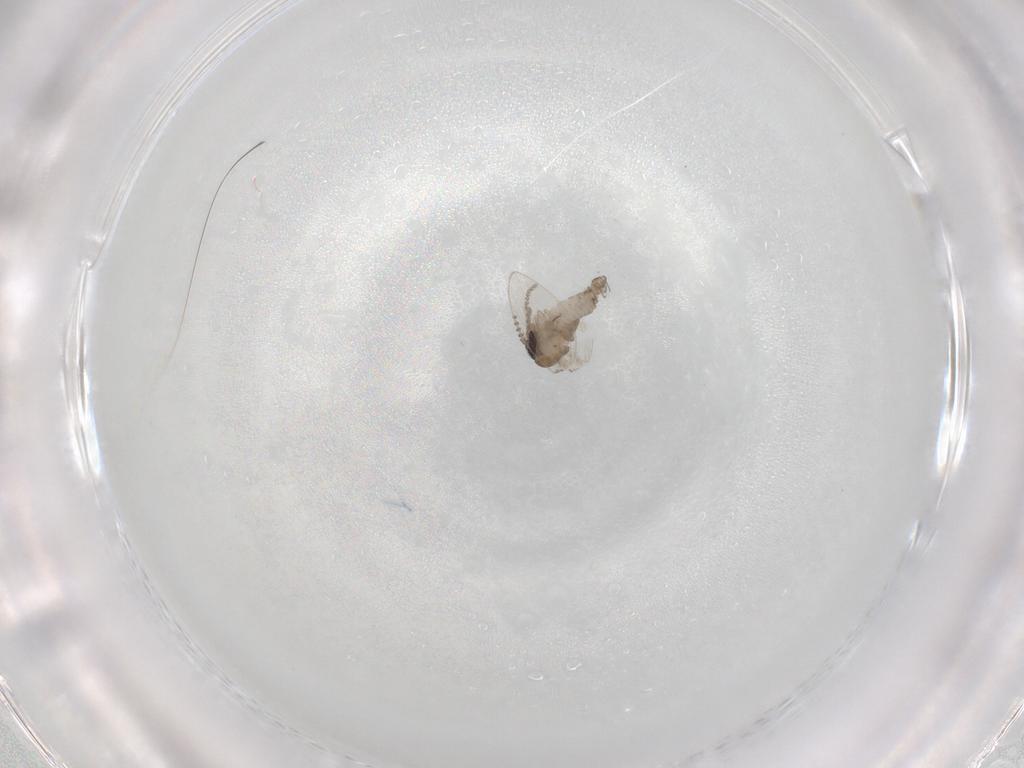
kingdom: Animalia
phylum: Arthropoda
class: Insecta
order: Diptera
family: Psychodidae
